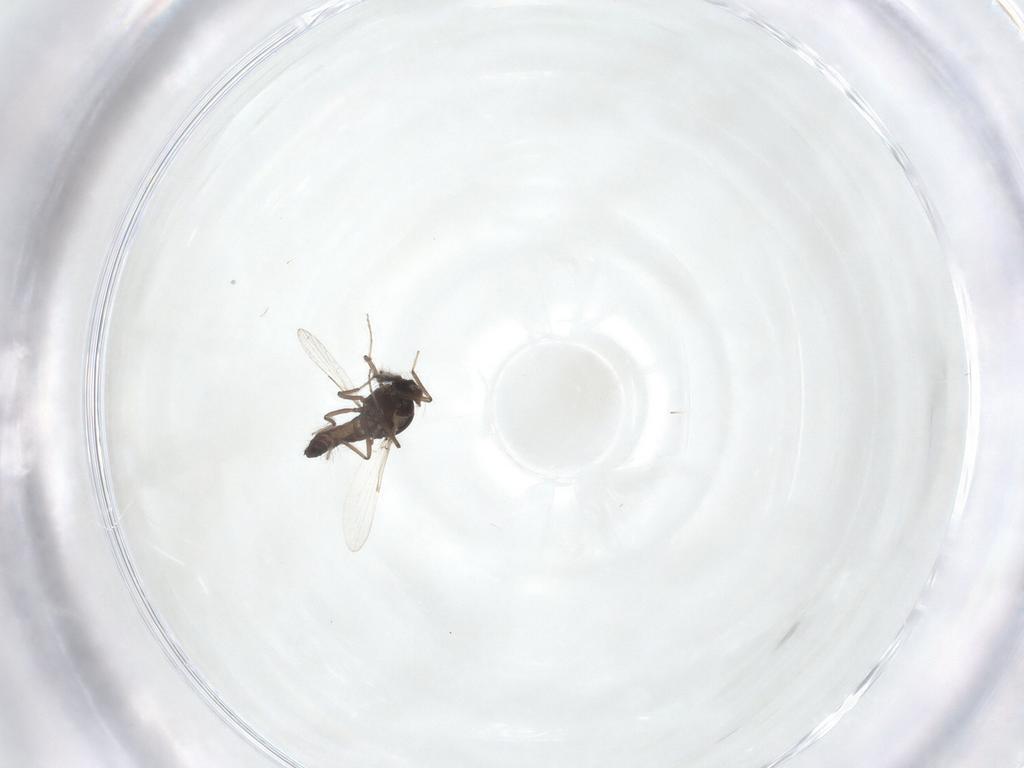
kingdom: Animalia
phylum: Arthropoda
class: Insecta
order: Diptera
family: Ceratopogonidae
